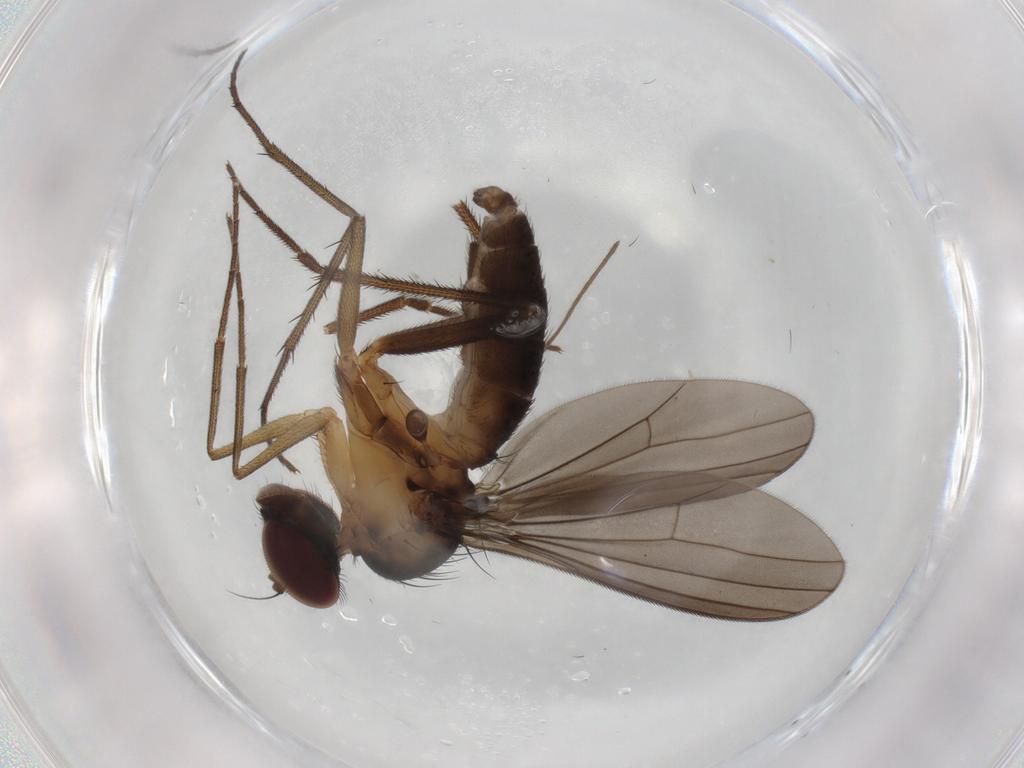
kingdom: Animalia
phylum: Arthropoda
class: Insecta
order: Diptera
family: Dolichopodidae
